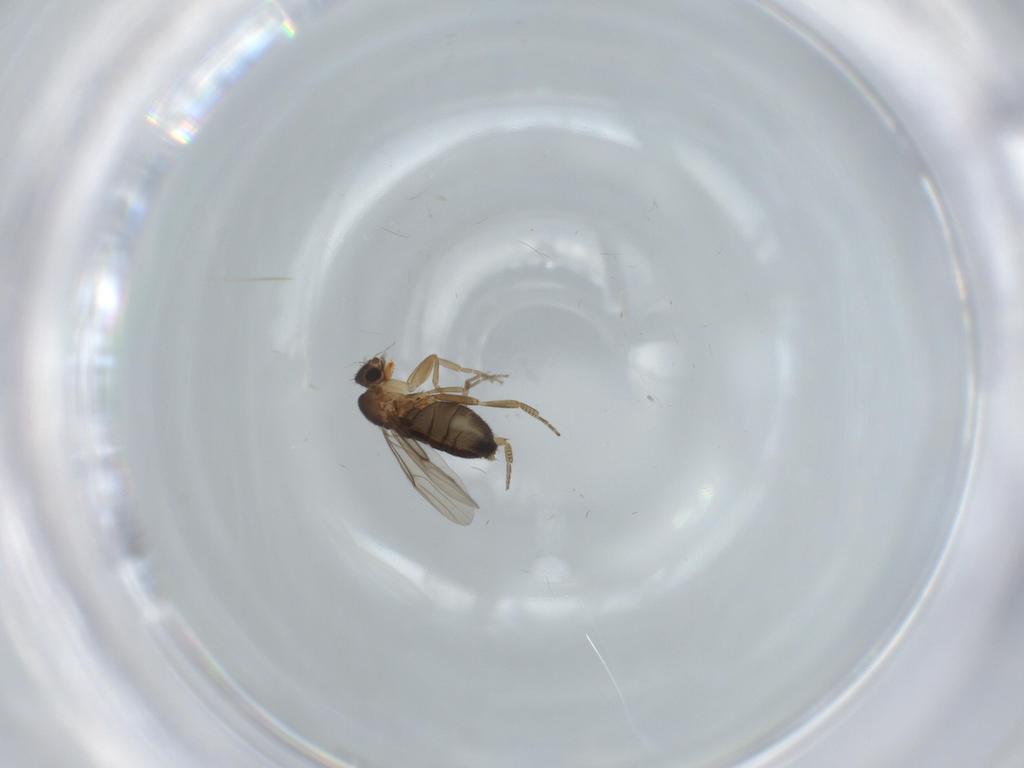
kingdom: Animalia
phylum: Arthropoda
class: Insecta
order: Diptera
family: Phoridae
